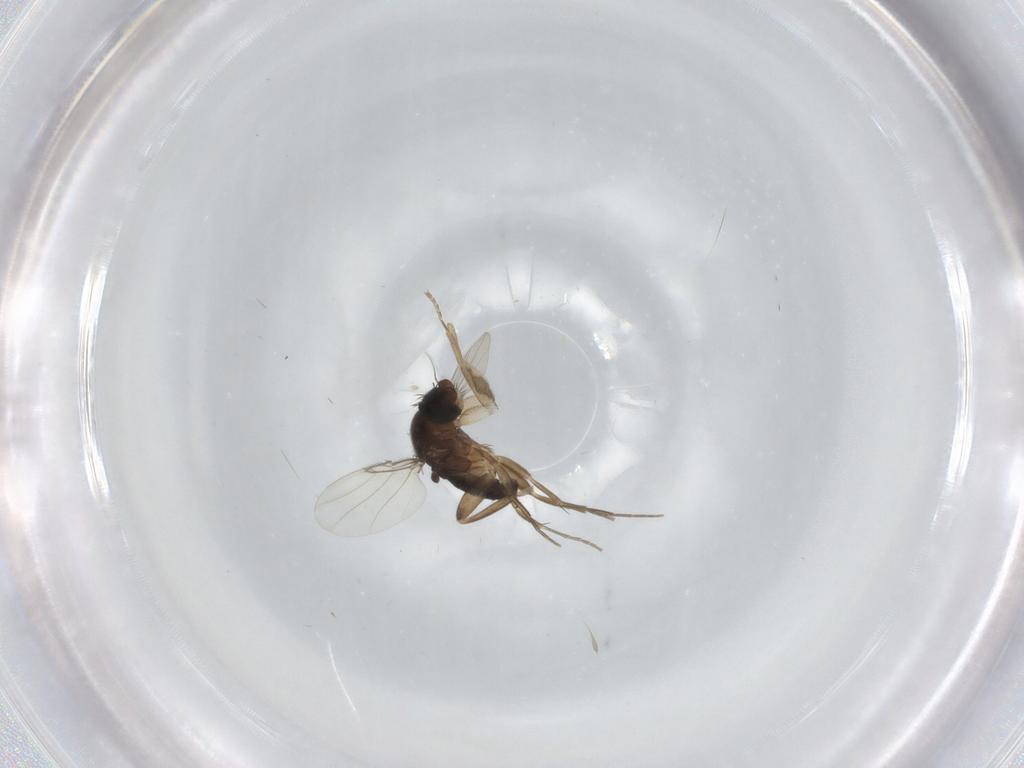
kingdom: Animalia
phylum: Arthropoda
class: Insecta
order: Diptera
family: Phoridae
